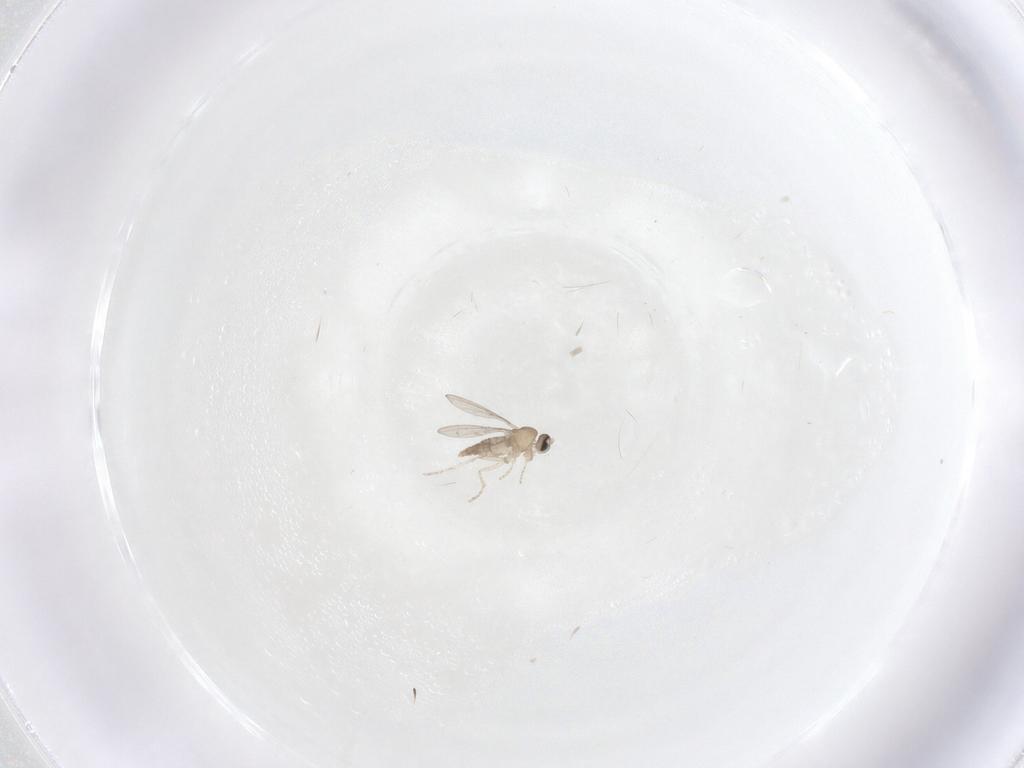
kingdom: Animalia
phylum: Arthropoda
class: Insecta
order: Diptera
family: Cecidomyiidae
